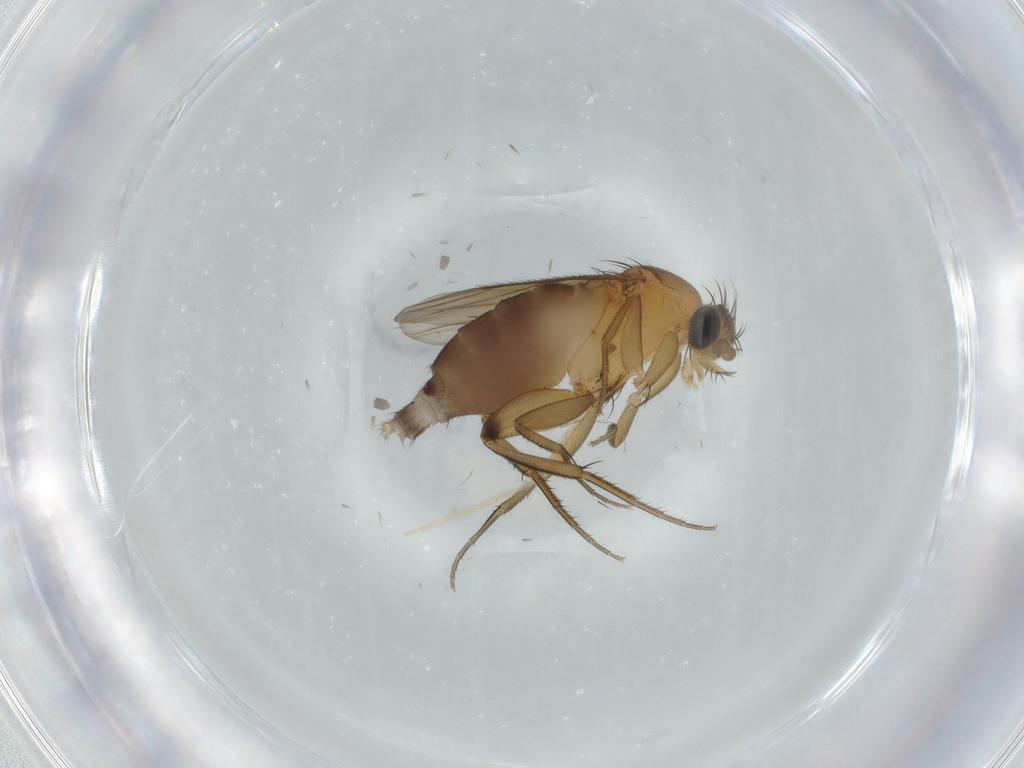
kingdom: Animalia
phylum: Arthropoda
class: Insecta
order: Diptera
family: Phoridae
